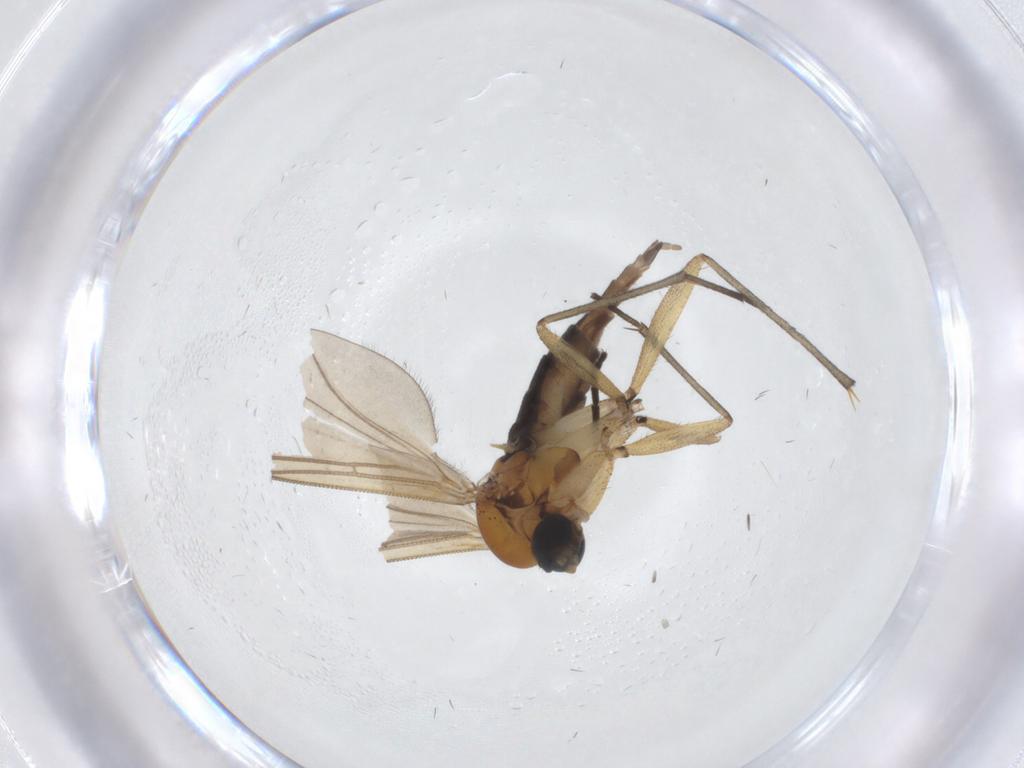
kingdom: Animalia
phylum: Arthropoda
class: Insecta
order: Diptera
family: Sciaridae
